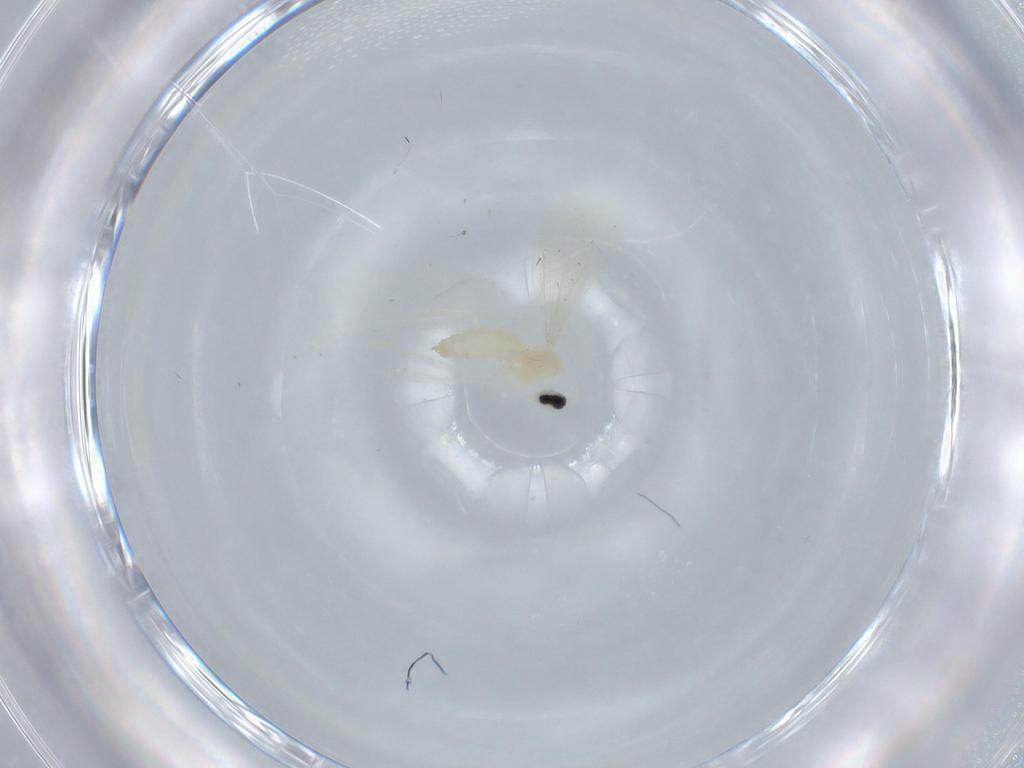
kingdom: Animalia
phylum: Arthropoda
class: Insecta
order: Diptera
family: Cecidomyiidae
